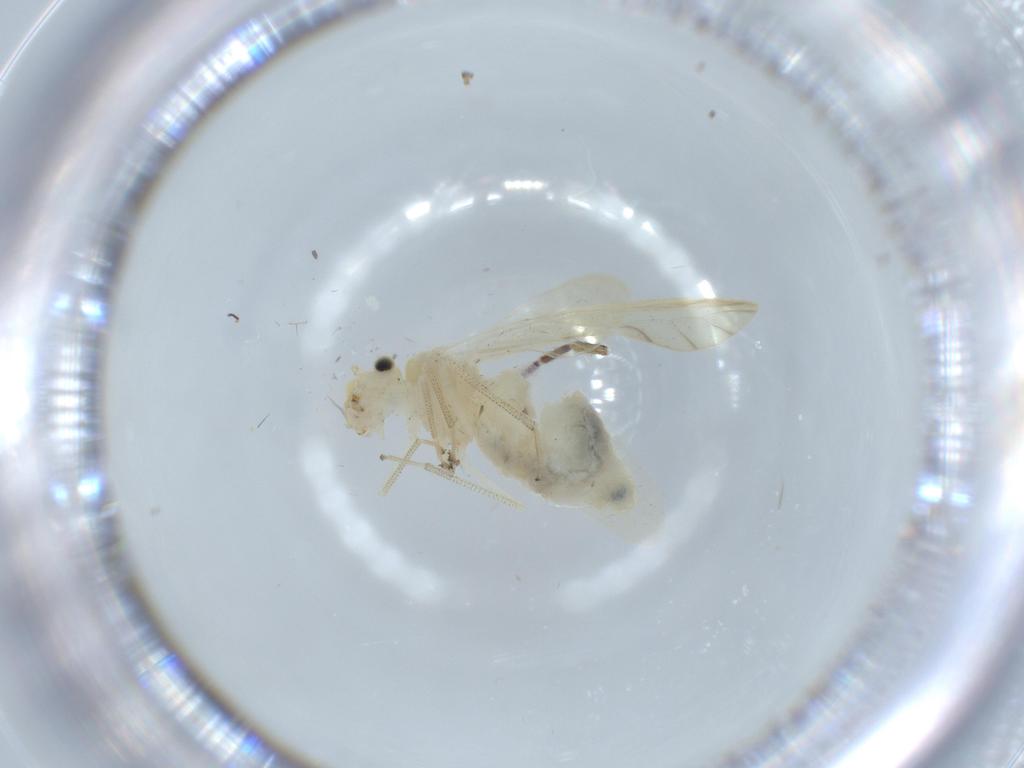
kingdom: Animalia
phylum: Arthropoda
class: Insecta
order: Psocodea
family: Caeciliusidae
